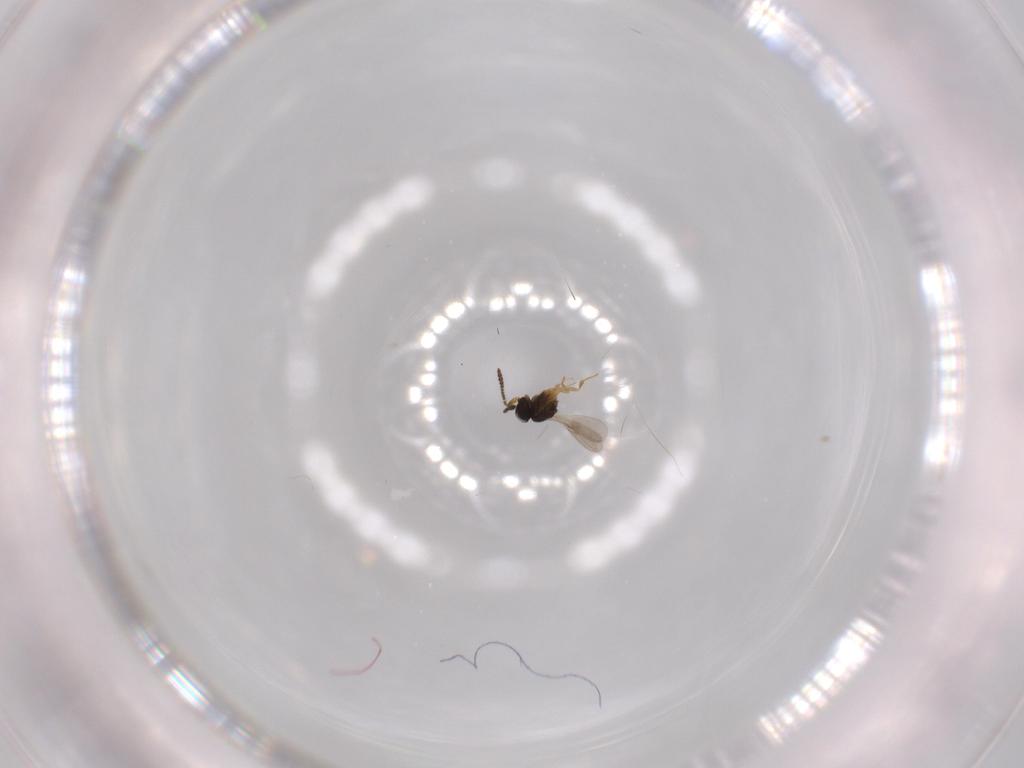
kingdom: Animalia
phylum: Arthropoda
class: Insecta
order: Hymenoptera
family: Scelionidae
